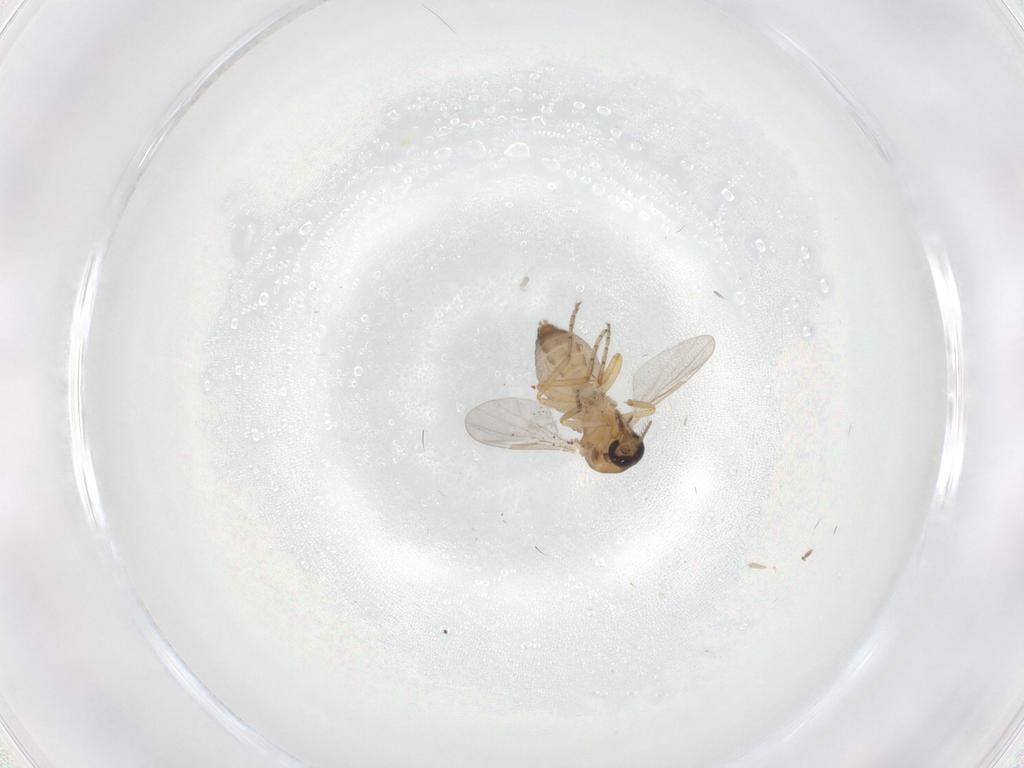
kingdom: Animalia
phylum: Arthropoda
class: Insecta
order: Diptera
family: Ceratopogonidae
